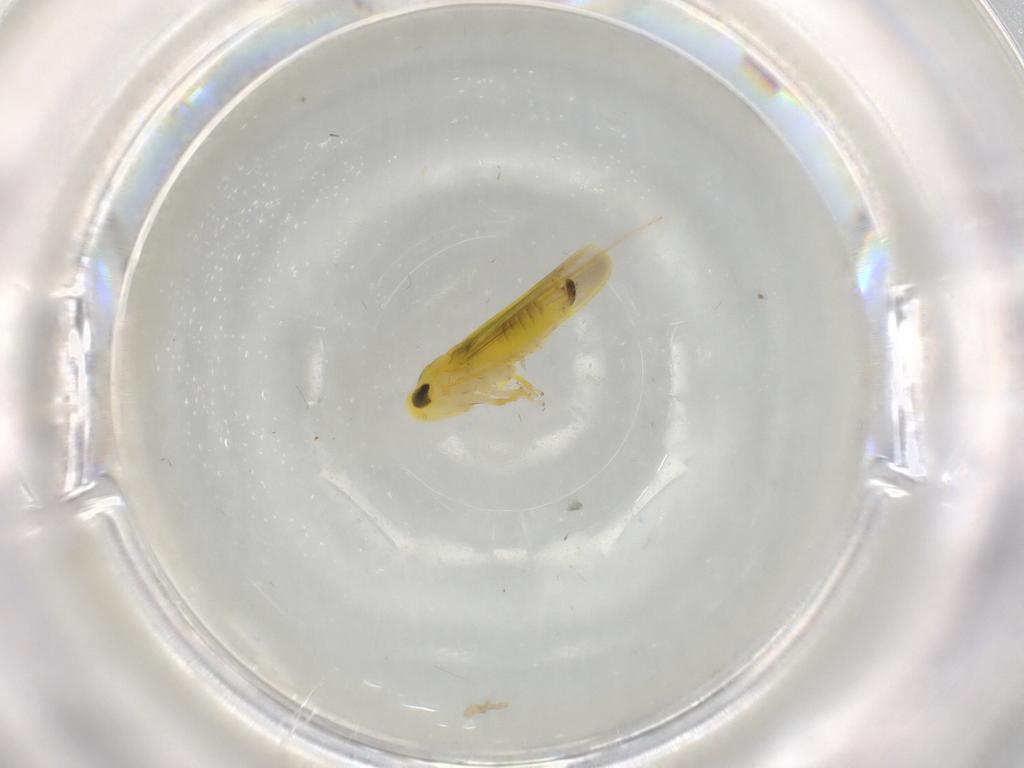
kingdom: Animalia
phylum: Arthropoda
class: Insecta
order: Hemiptera
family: Cicadellidae
